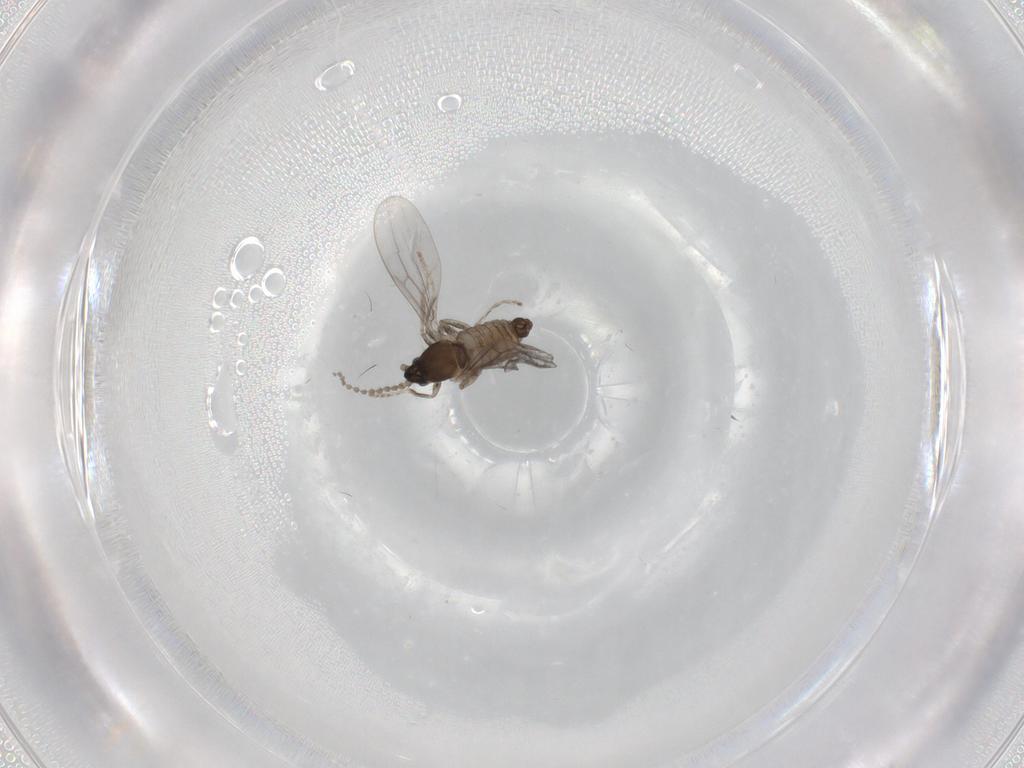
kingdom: Animalia
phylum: Arthropoda
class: Insecta
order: Diptera
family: Cecidomyiidae
